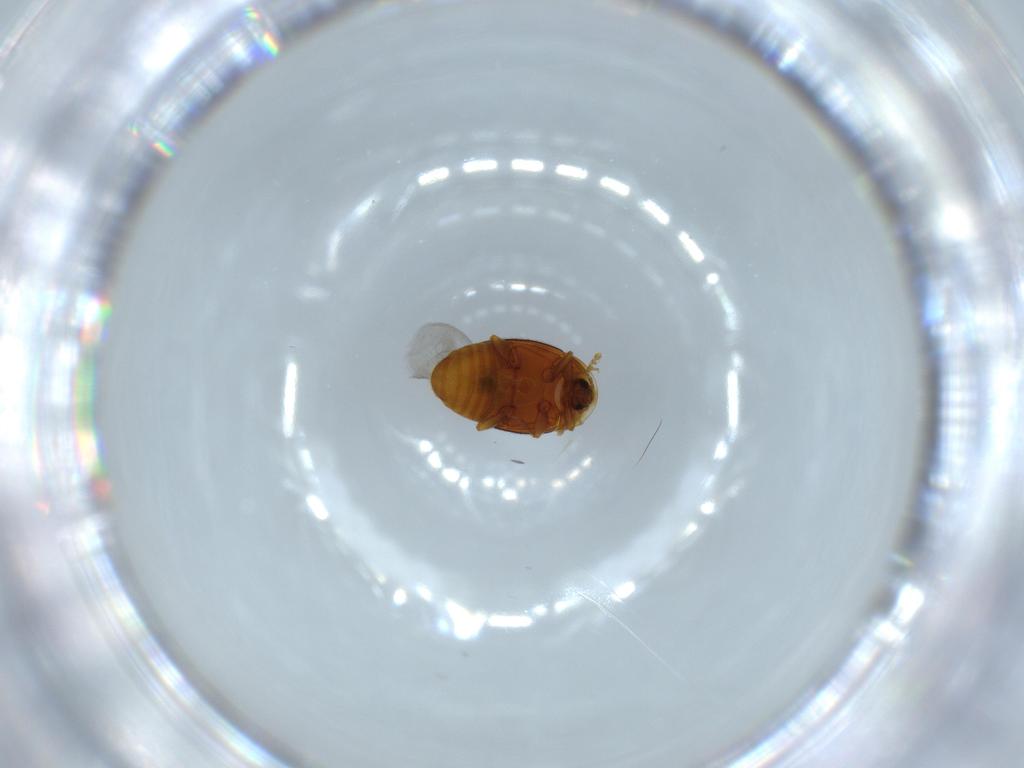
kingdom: Animalia
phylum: Arthropoda
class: Insecta
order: Coleoptera
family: Corylophidae
